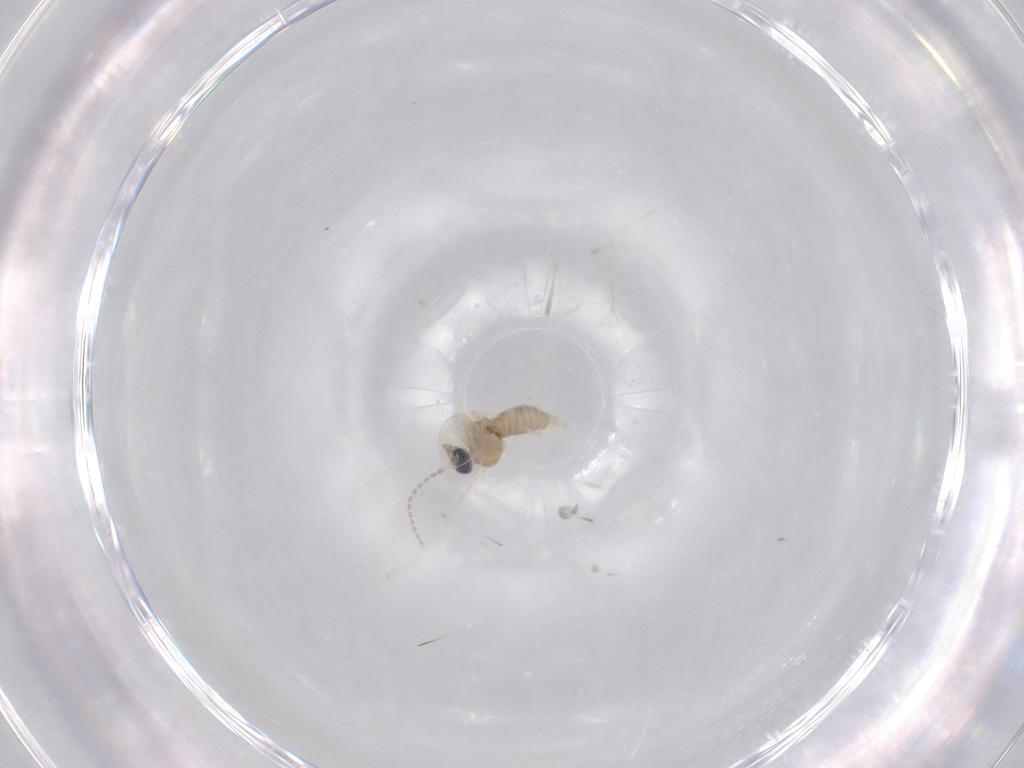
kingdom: Animalia
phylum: Arthropoda
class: Insecta
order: Diptera
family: Cecidomyiidae
